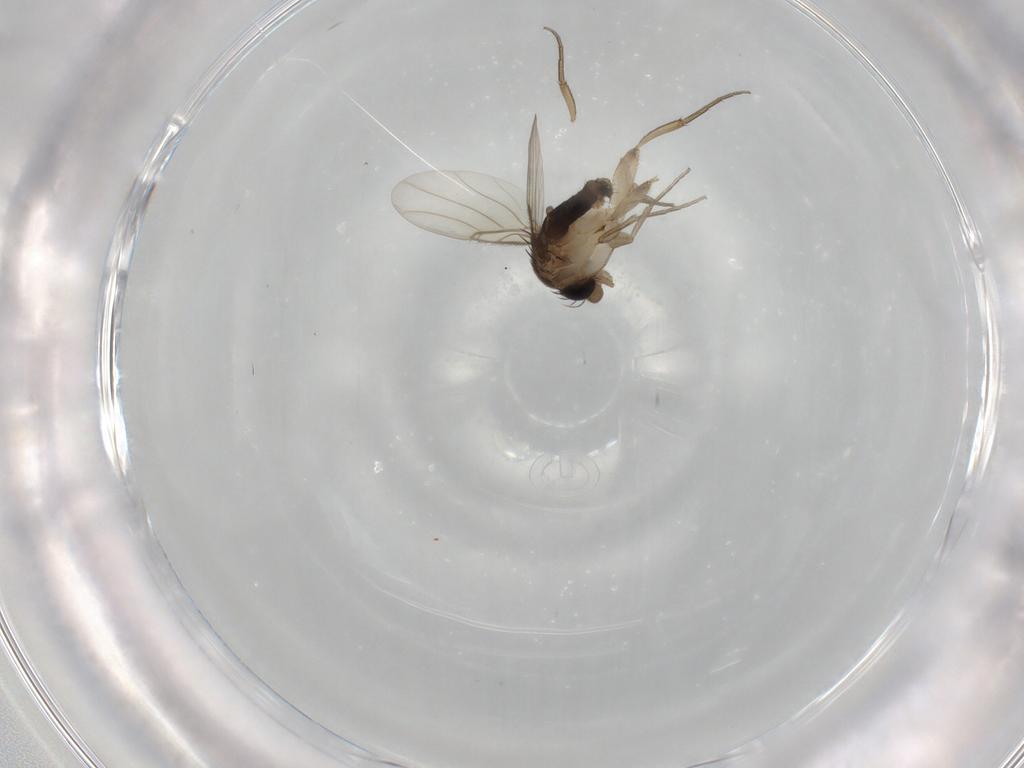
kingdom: Animalia
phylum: Arthropoda
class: Insecta
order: Diptera
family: Phoridae
